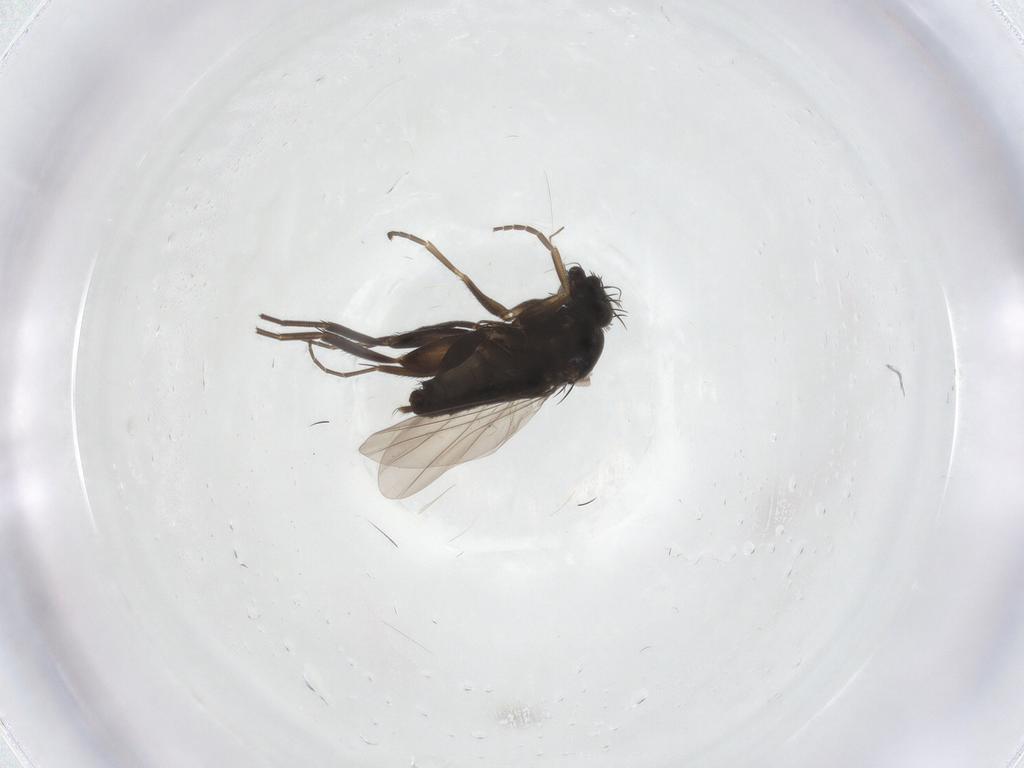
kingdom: Animalia
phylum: Arthropoda
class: Insecta
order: Diptera
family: Phoridae
